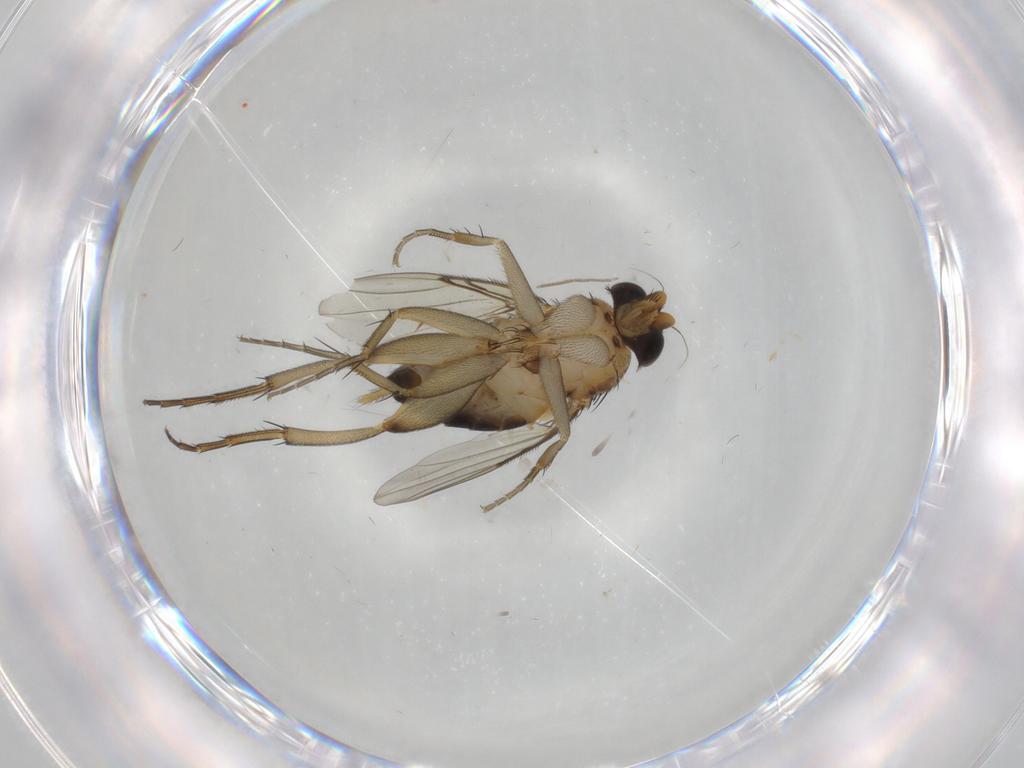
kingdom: Animalia
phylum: Arthropoda
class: Insecta
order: Diptera
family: Phoridae
